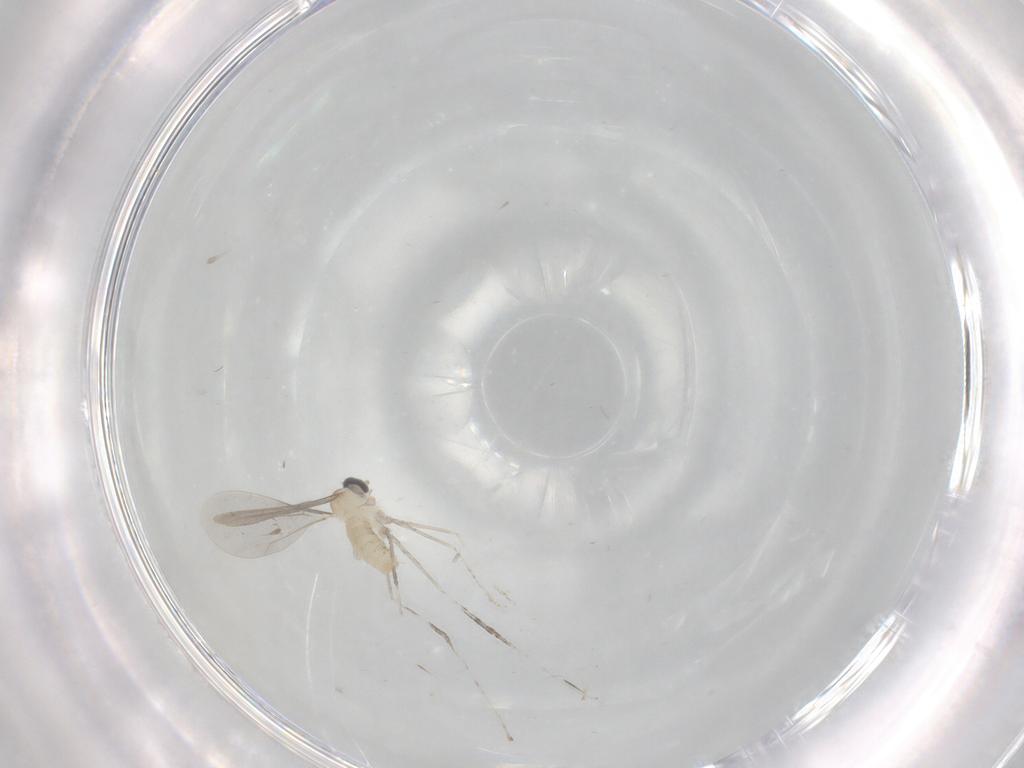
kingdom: Animalia
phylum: Arthropoda
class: Insecta
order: Diptera
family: Cecidomyiidae
